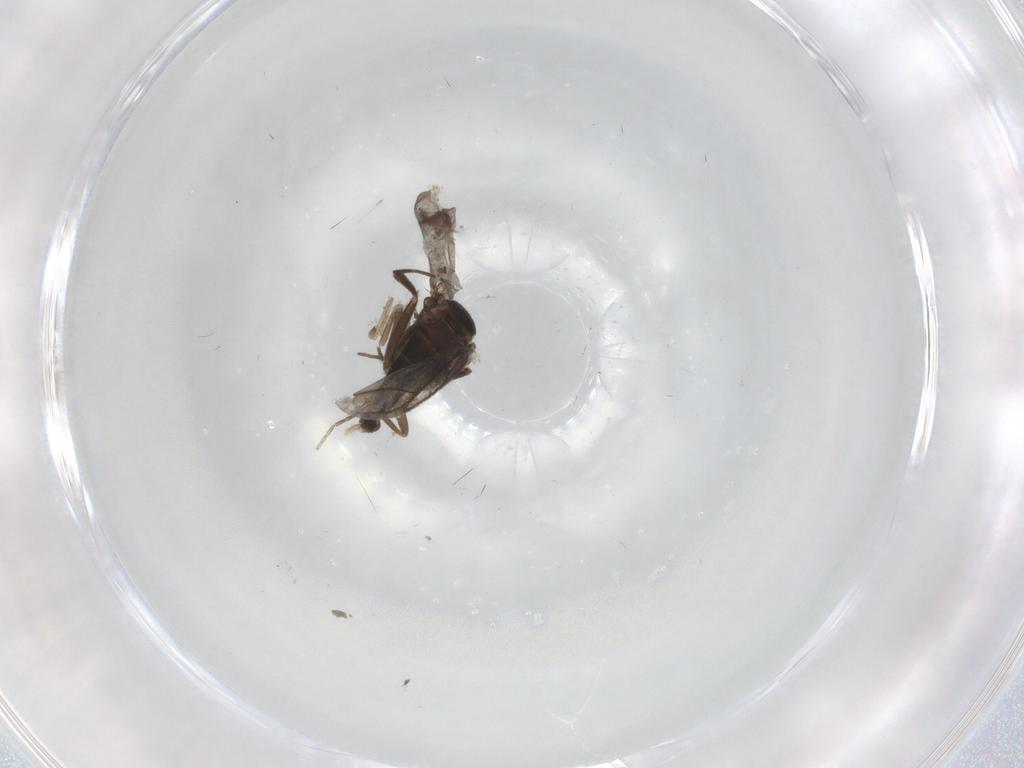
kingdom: Animalia
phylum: Arthropoda
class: Insecta
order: Diptera
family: Phoridae
